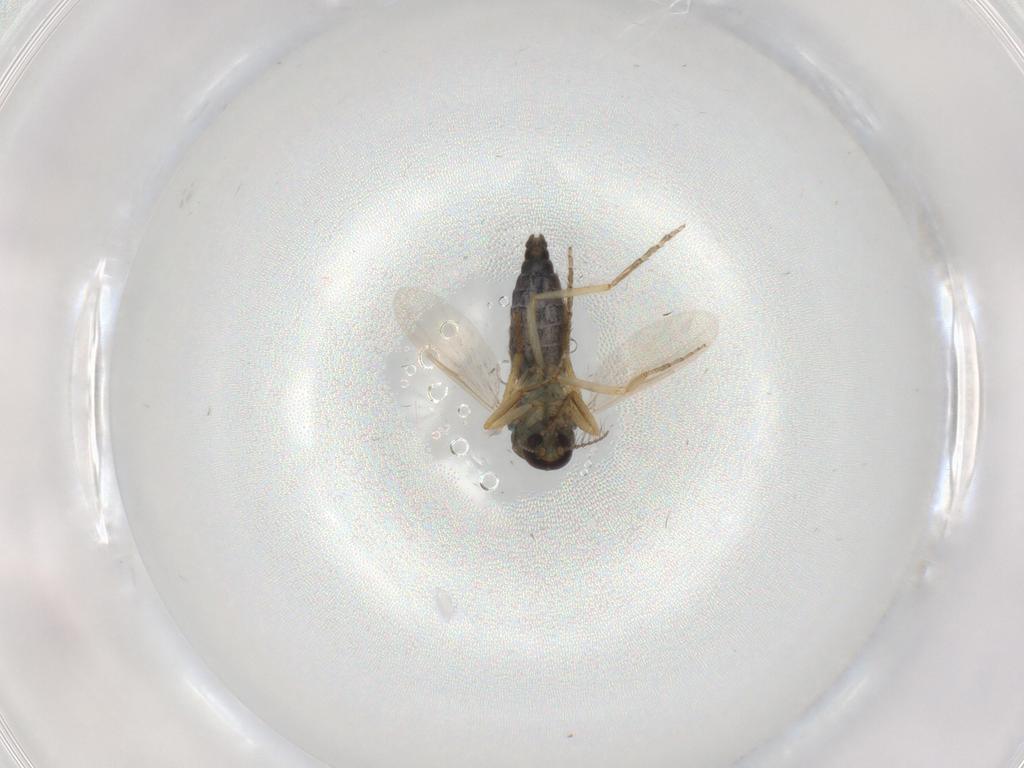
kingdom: Animalia
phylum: Arthropoda
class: Insecta
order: Diptera
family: Ceratopogonidae
